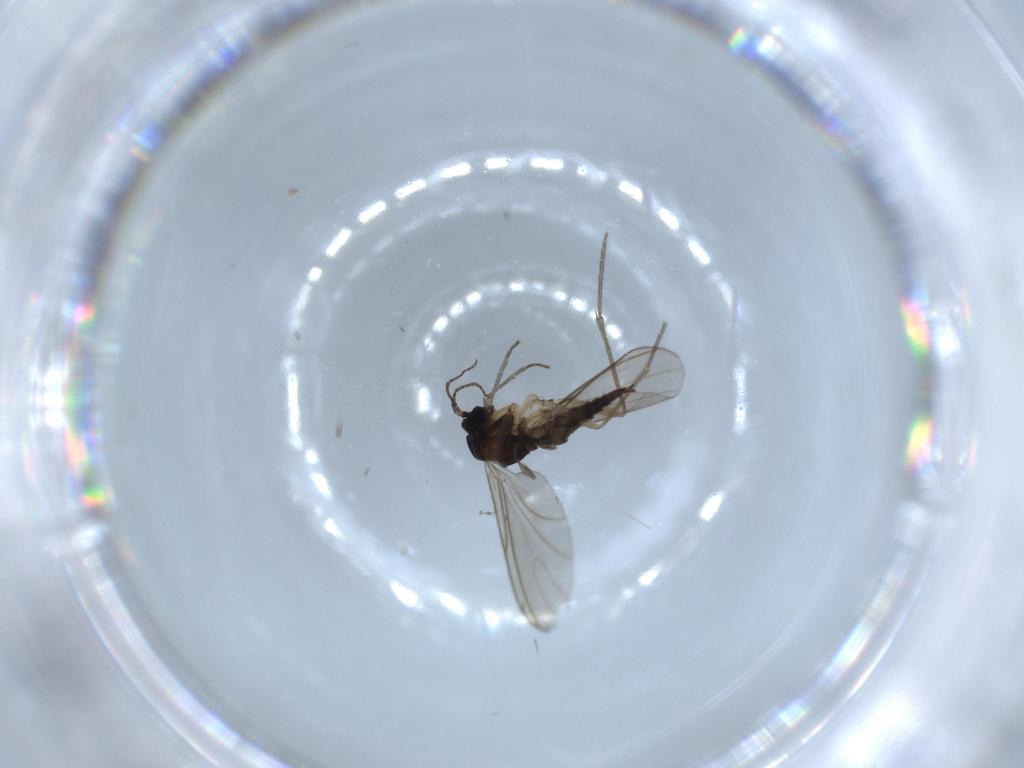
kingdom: Animalia
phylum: Arthropoda
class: Insecta
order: Diptera
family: Sciaridae
